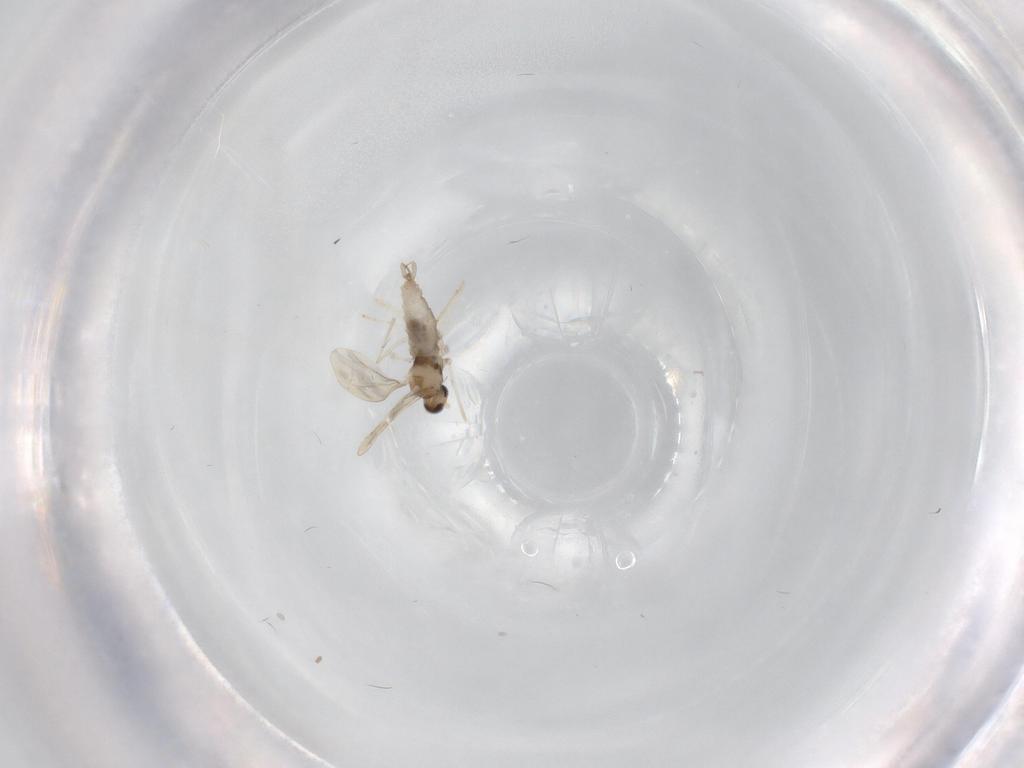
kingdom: Animalia
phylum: Arthropoda
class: Insecta
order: Diptera
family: Cecidomyiidae
